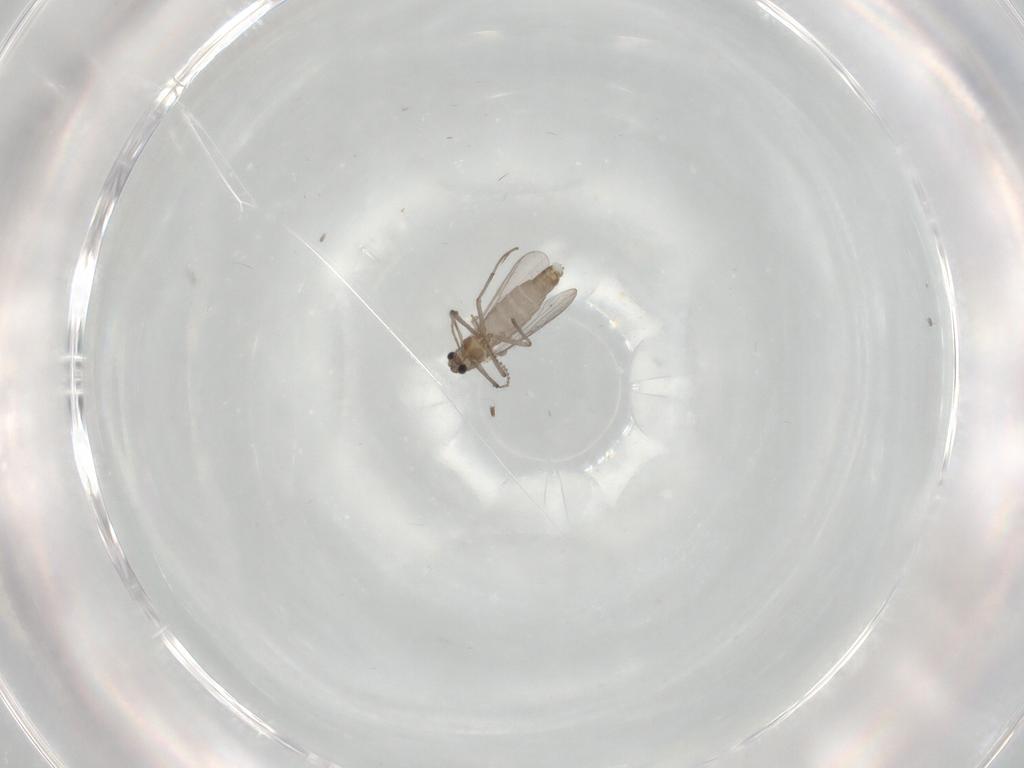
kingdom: Animalia
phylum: Arthropoda
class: Insecta
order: Diptera
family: Chironomidae
